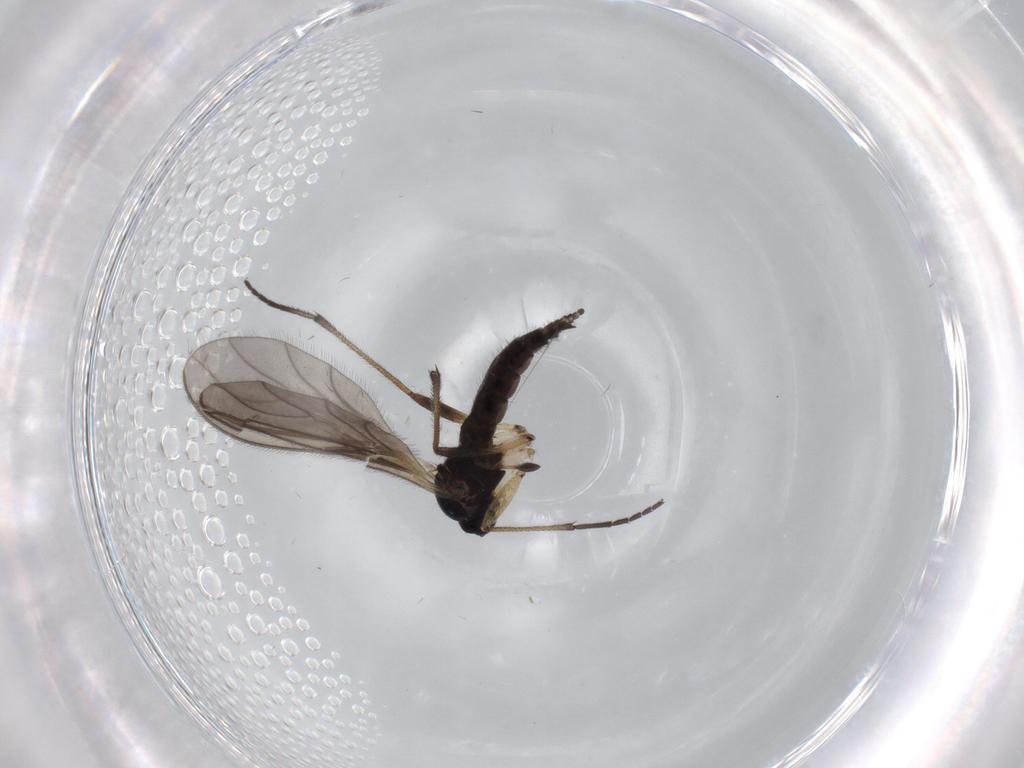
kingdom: Animalia
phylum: Arthropoda
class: Insecta
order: Diptera
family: Sciaridae
